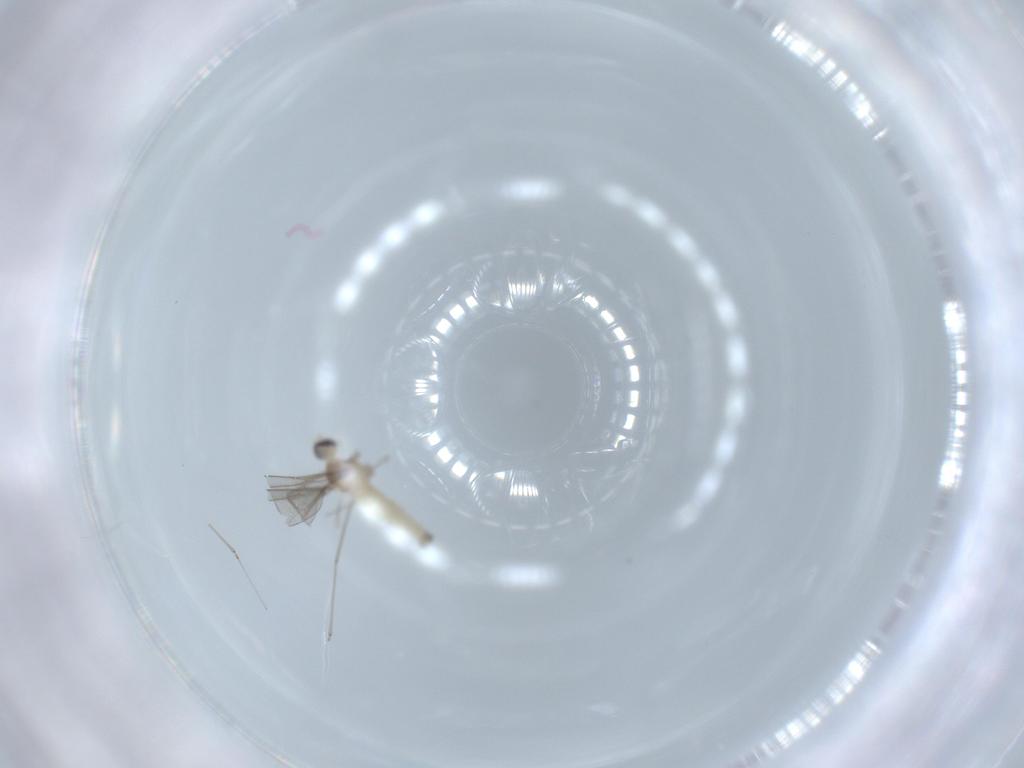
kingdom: Animalia
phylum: Arthropoda
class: Insecta
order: Diptera
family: Cecidomyiidae
